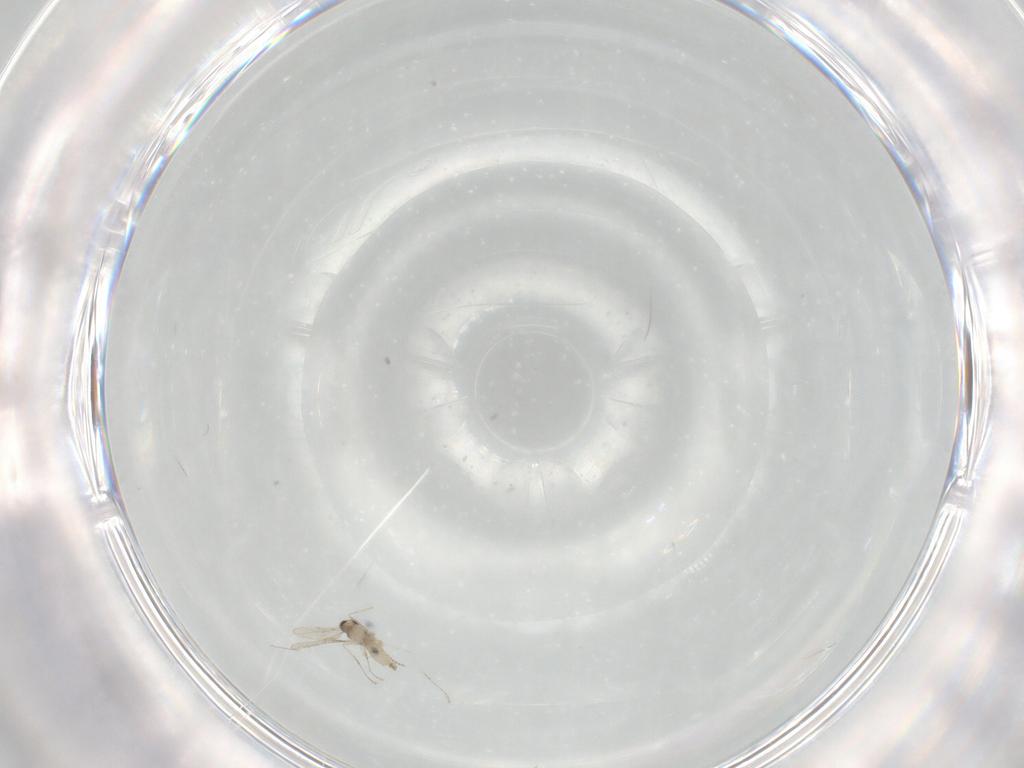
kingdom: Animalia
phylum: Arthropoda
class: Insecta
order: Diptera
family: Cecidomyiidae
